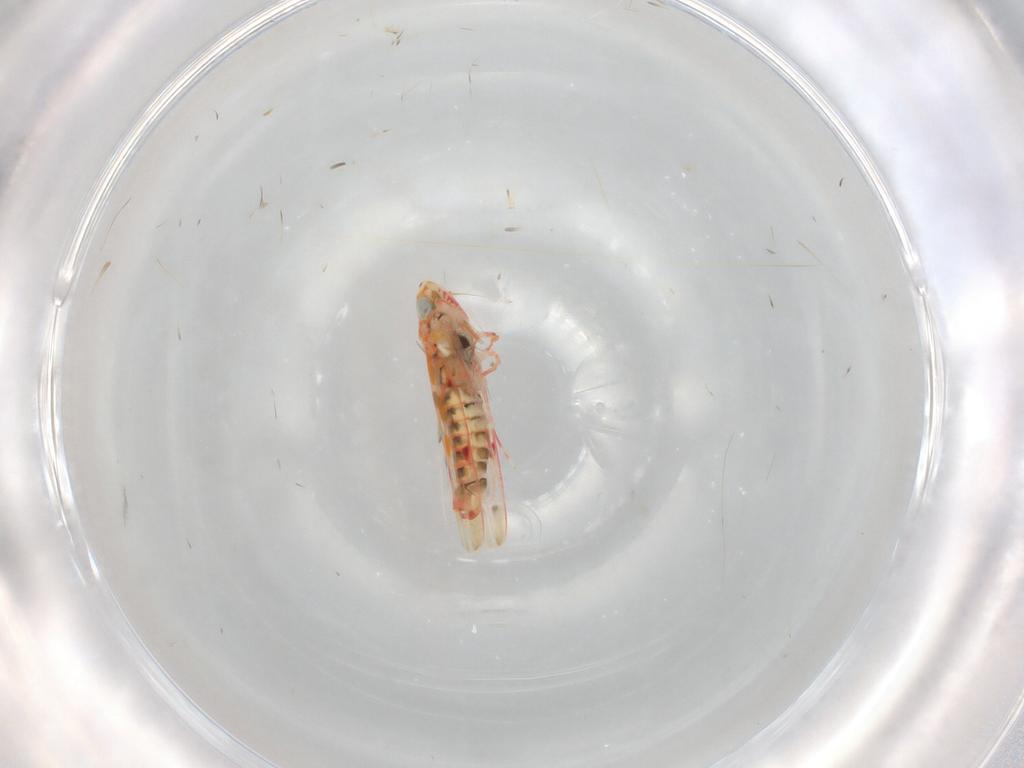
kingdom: Animalia
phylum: Arthropoda
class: Insecta
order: Hemiptera
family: Cicadellidae
